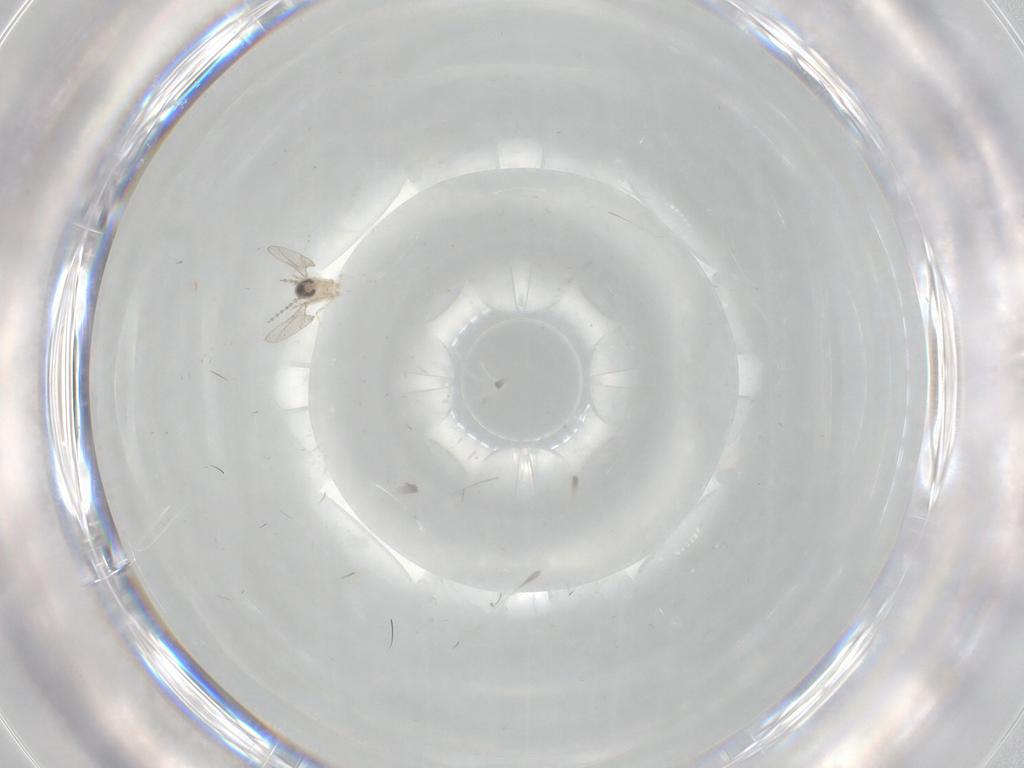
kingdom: Animalia
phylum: Arthropoda
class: Insecta
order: Diptera
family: Cecidomyiidae
